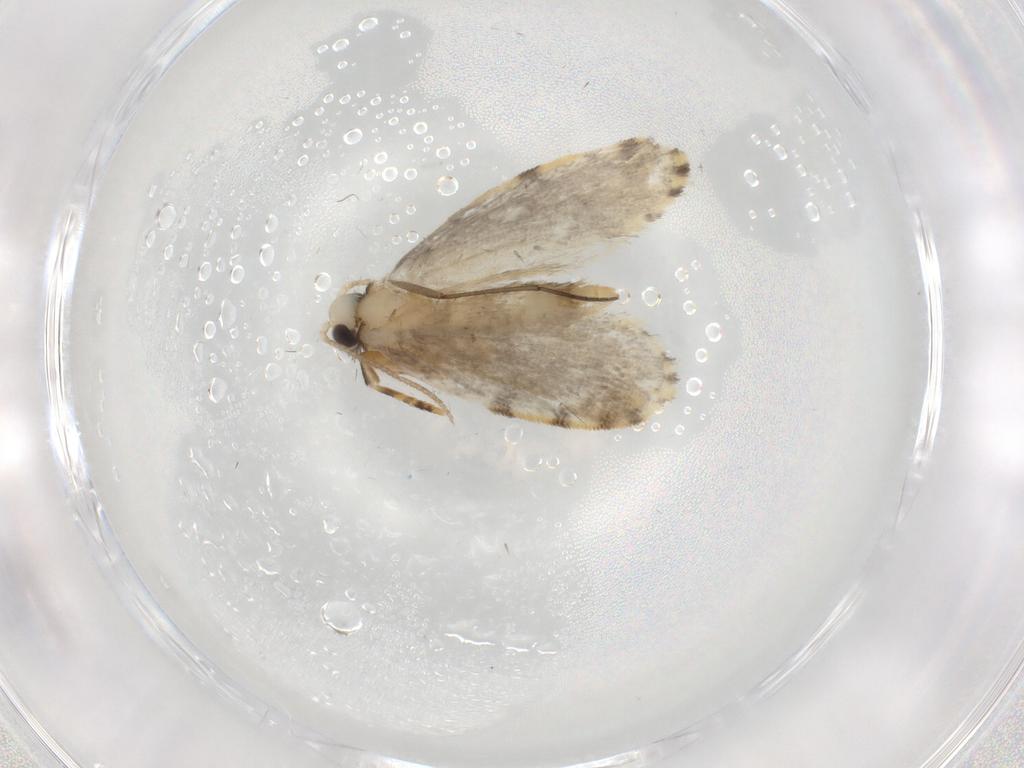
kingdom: Animalia
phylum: Arthropoda
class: Insecta
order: Lepidoptera
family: Psychidae
